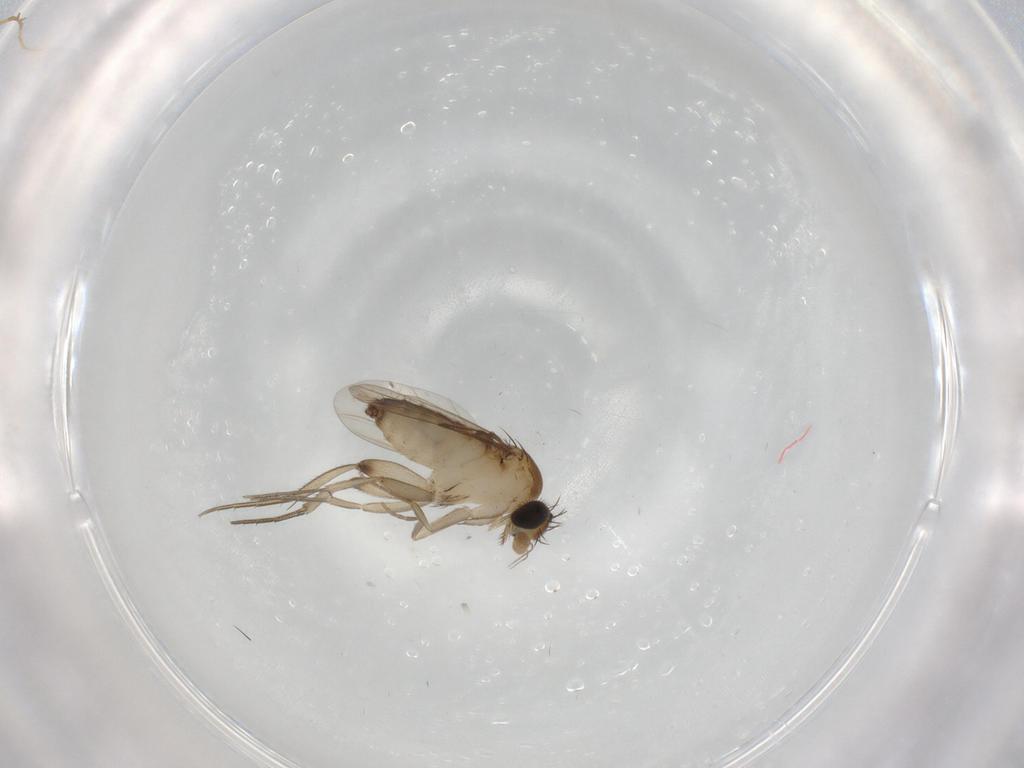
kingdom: Animalia
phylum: Arthropoda
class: Insecta
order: Diptera
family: Phoridae
